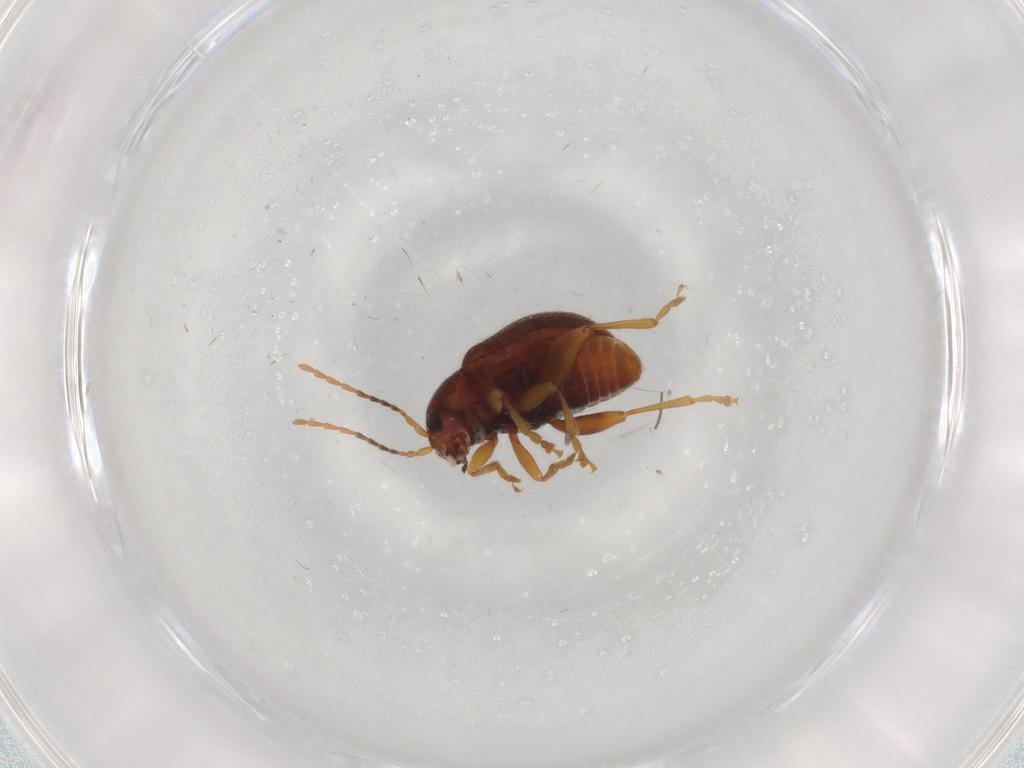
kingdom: Animalia
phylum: Arthropoda
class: Insecta
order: Coleoptera
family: Chrysomelidae
